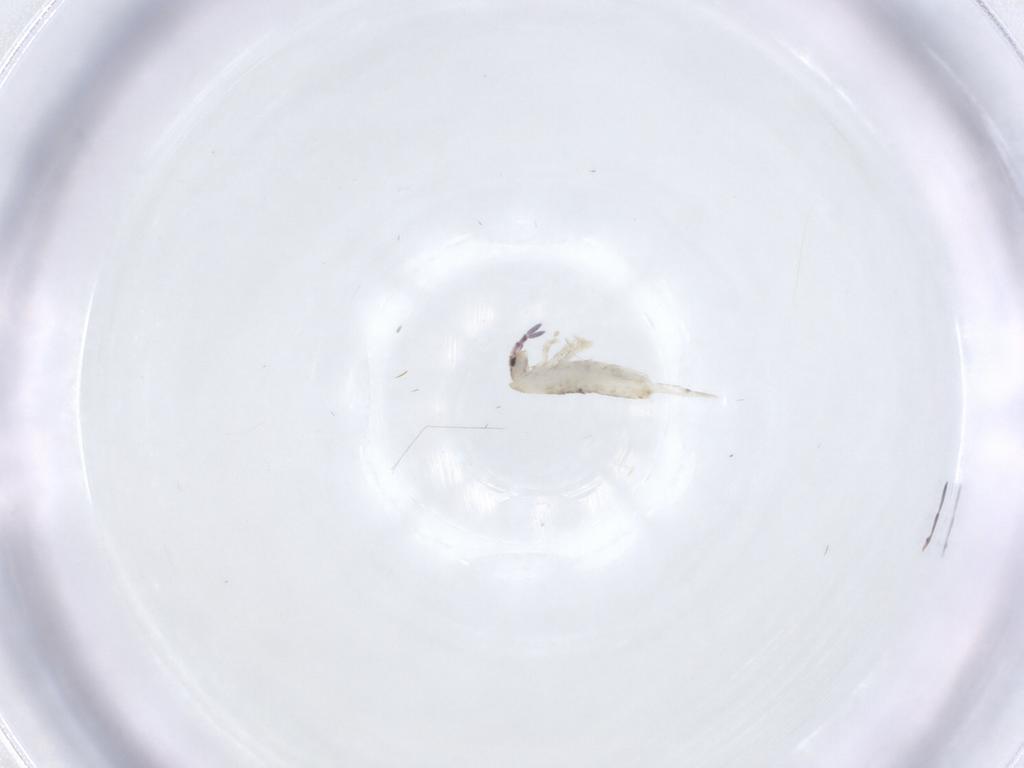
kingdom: Animalia
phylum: Arthropoda
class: Collembola
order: Entomobryomorpha
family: Entomobryidae
